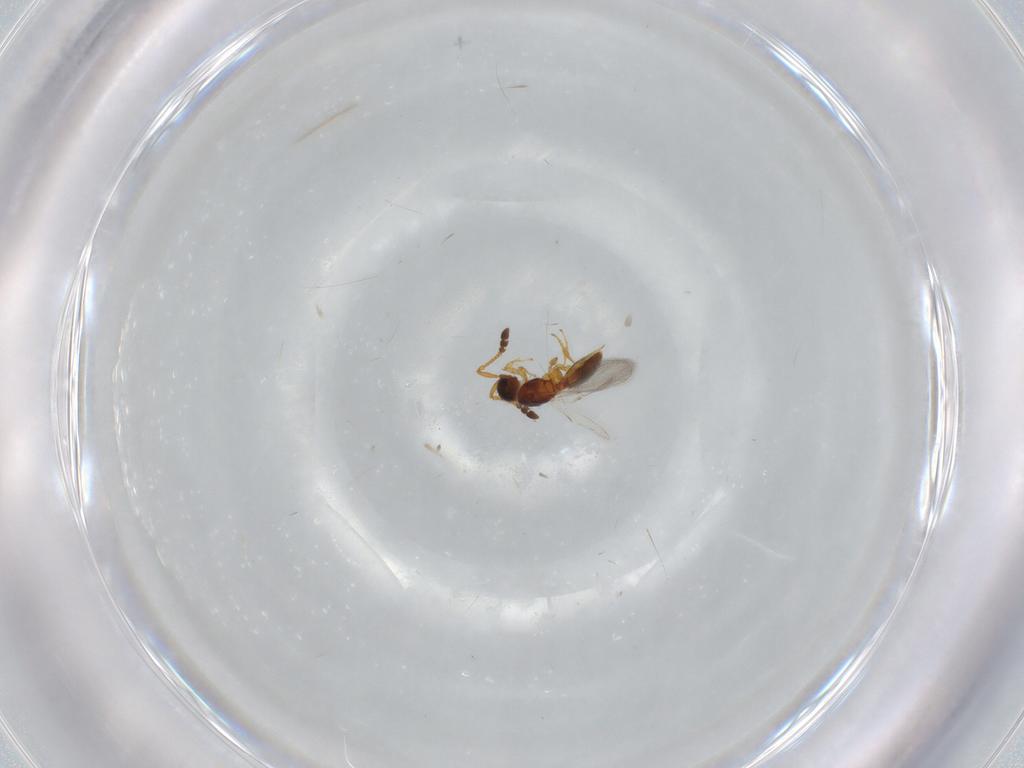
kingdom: Animalia
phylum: Arthropoda
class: Insecta
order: Hymenoptera
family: Diapriidae
